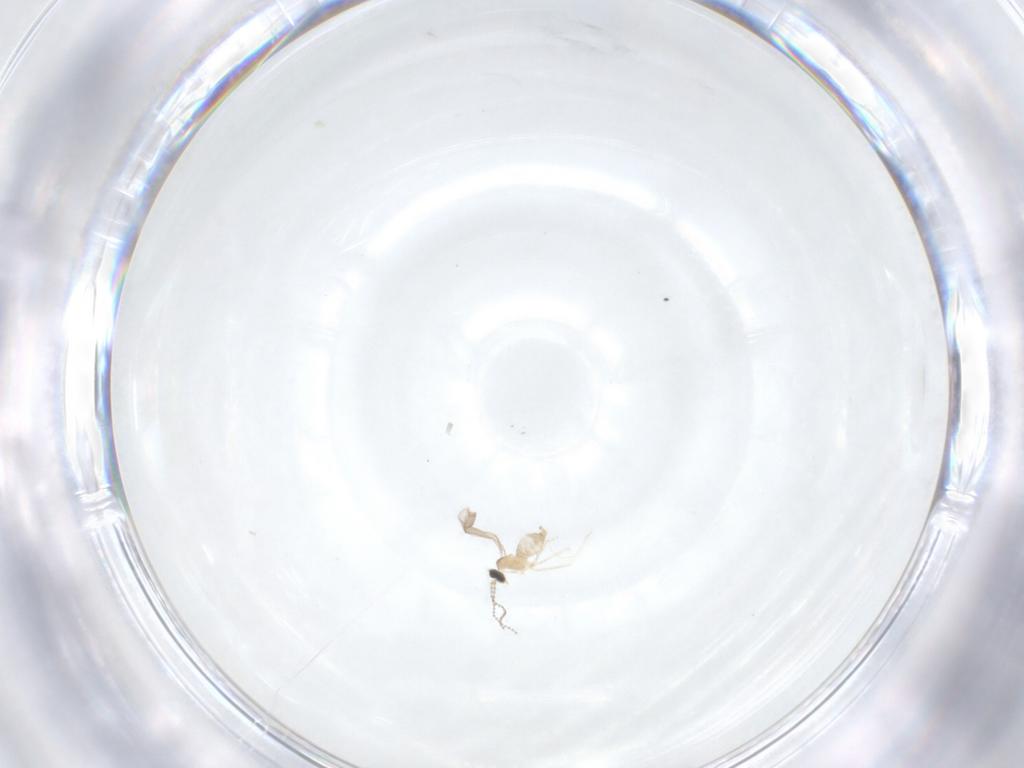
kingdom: Animalia
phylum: Arthropoda
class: Insecta
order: Diptera
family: Cecidomyiidae
